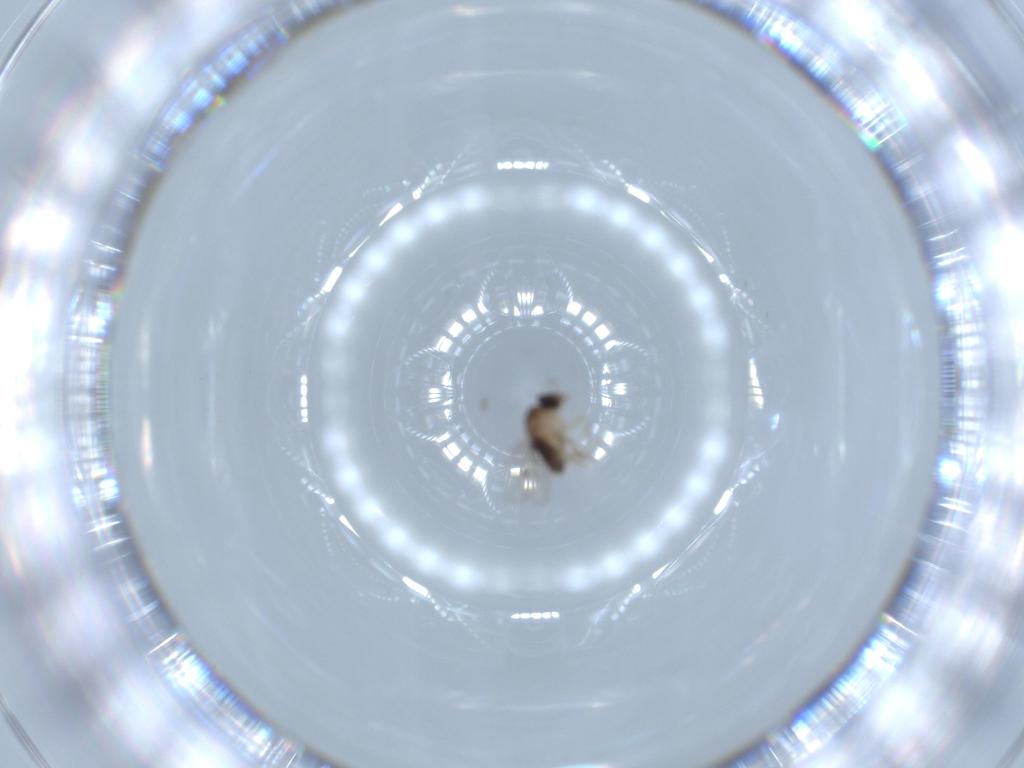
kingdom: Animalia
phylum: Arthropoda
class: Insecta
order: Diptera
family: Phoridae
